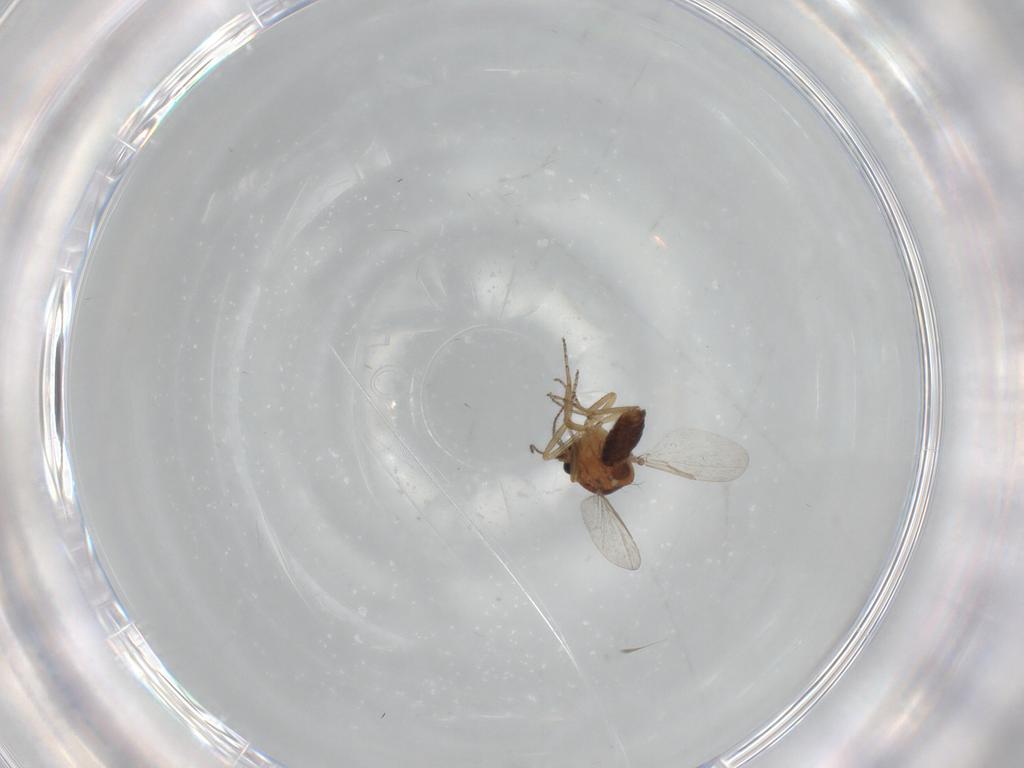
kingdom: Animalia
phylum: Arthropoda
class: Insecta
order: Diptera
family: Ceratopogonidae
